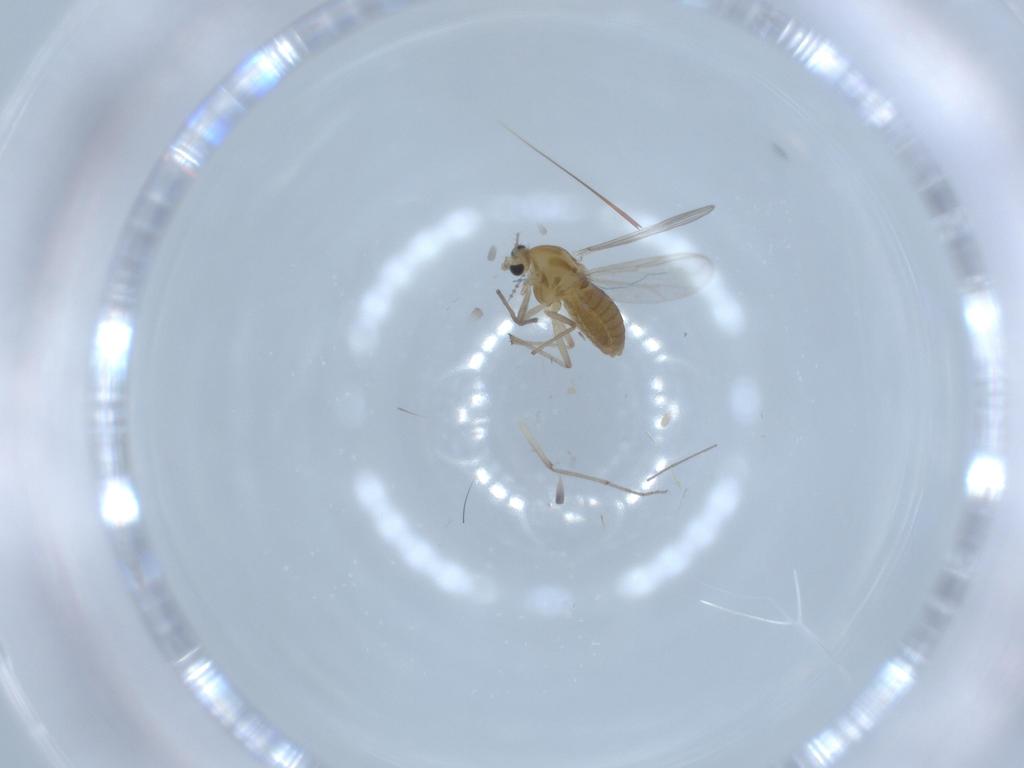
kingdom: Animalia
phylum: Arthropoda
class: Insecta
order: Diptera
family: Chironomidae
